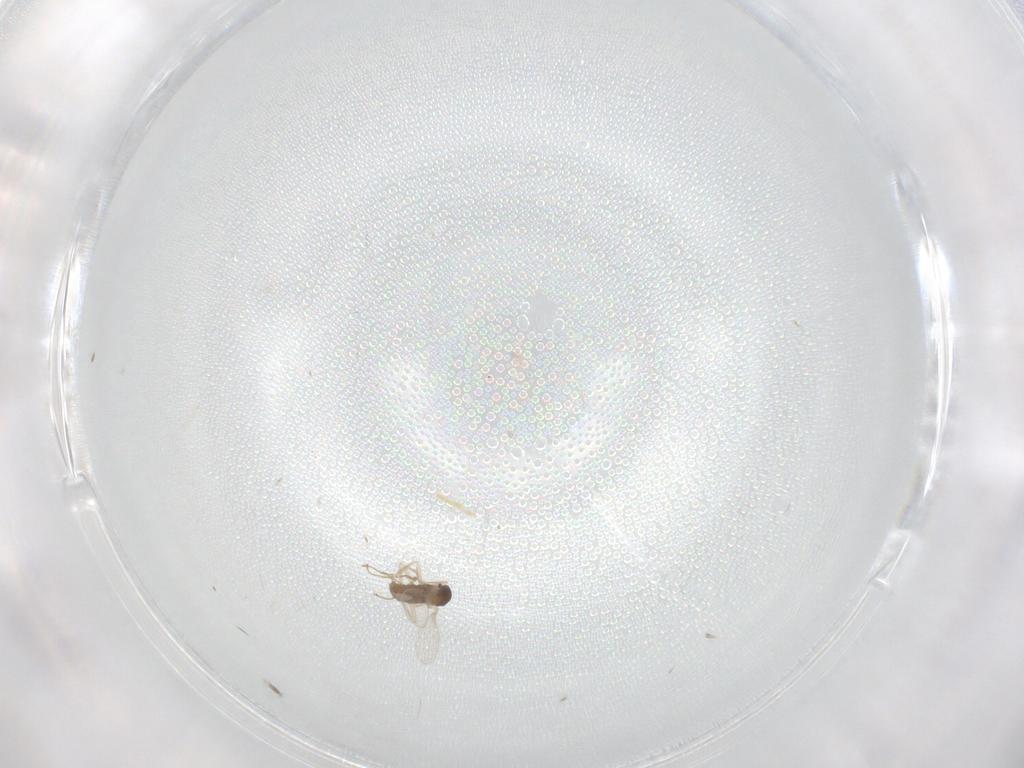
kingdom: Animalia
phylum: Arthropoda
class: Insecta
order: Diptera
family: Cecidomyiidae
